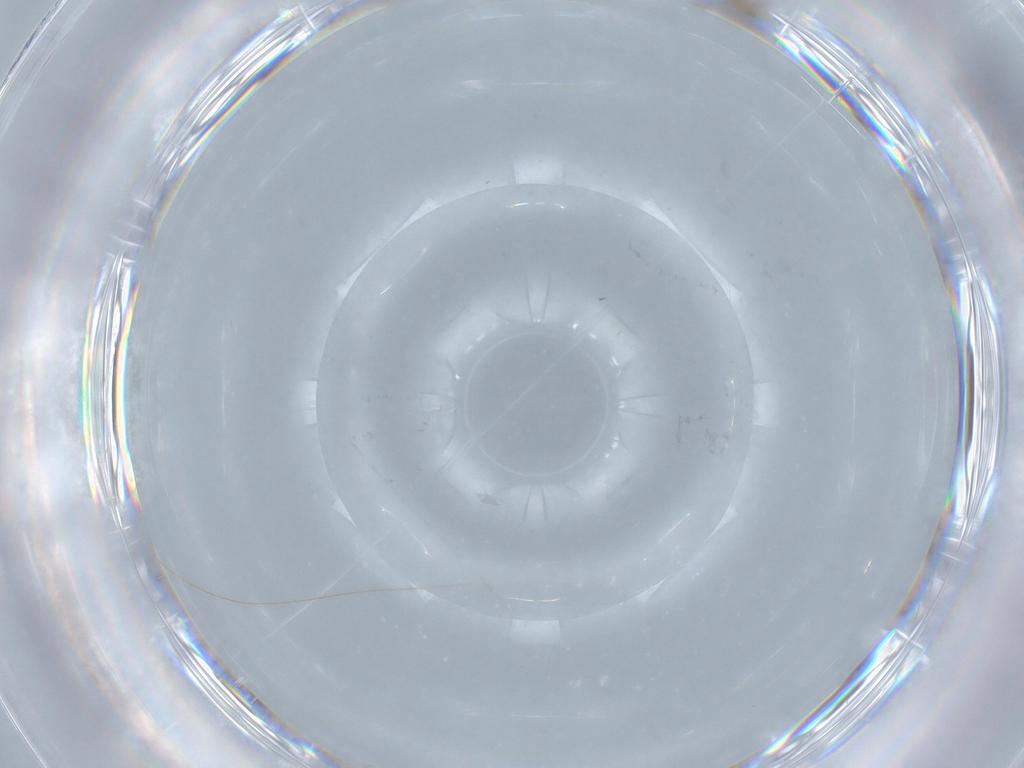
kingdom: Animalia
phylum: Arthropoda
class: Insecta
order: Diptera
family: Cecidomyiidae
